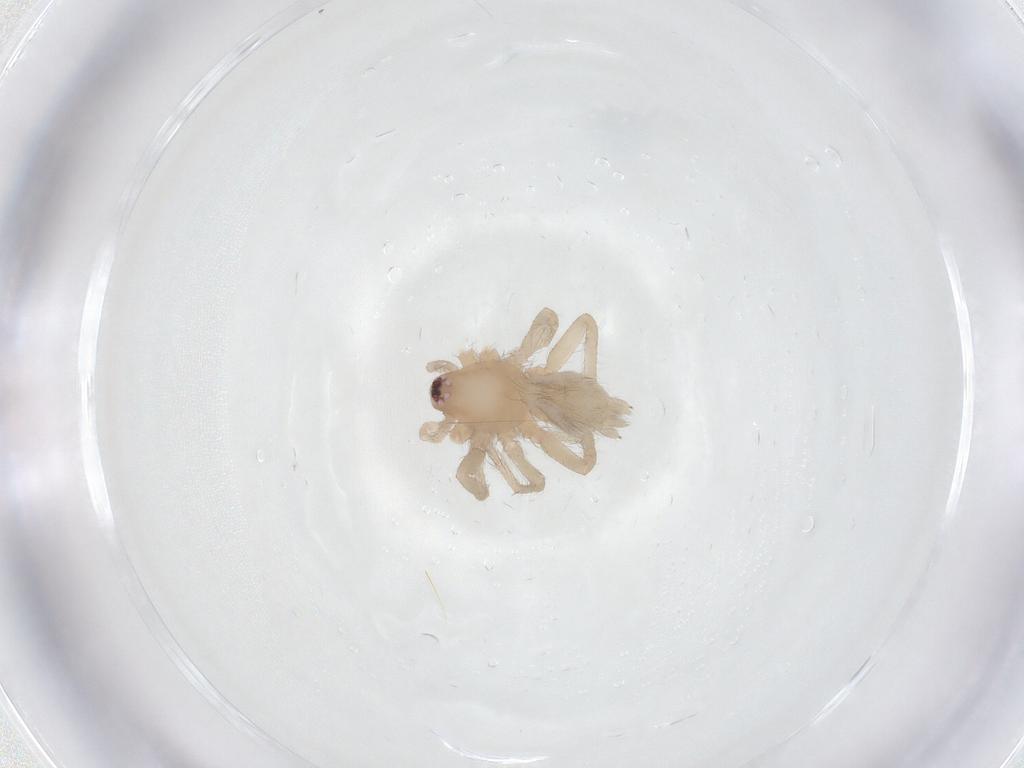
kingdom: Animalia
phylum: Arthropoda
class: Arachnida
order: Araneae
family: Gnaphosidae
